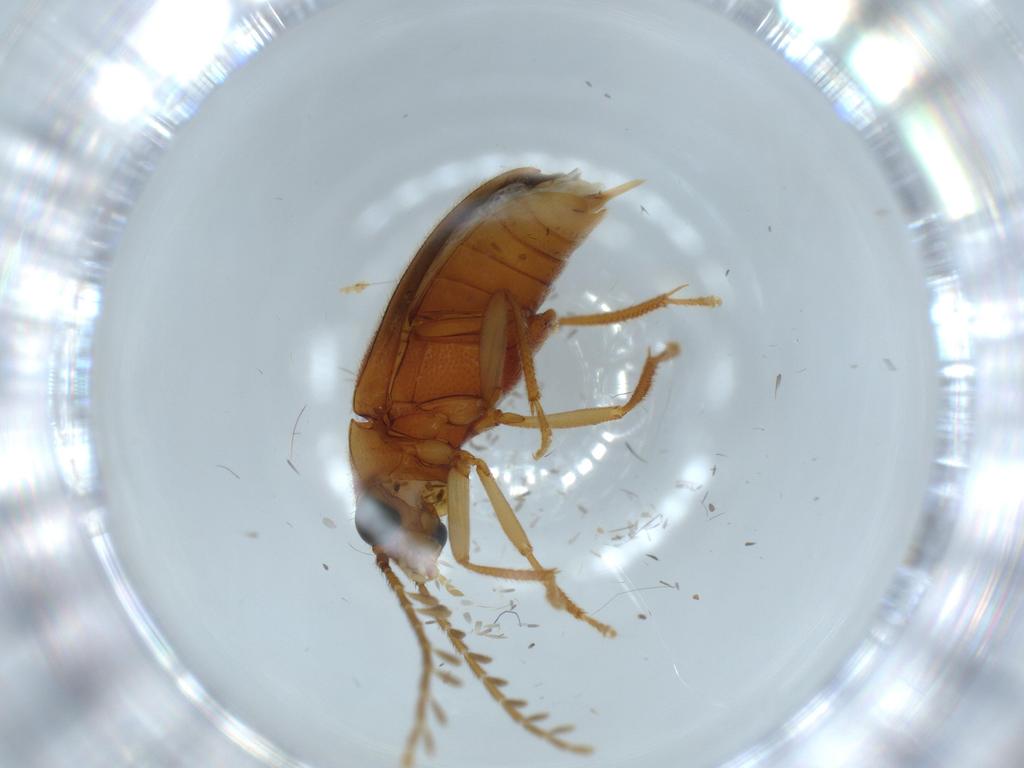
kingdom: Animalia
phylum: Arthropoda
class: Insecta
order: Coleoptera
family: Ptilodactylidae
